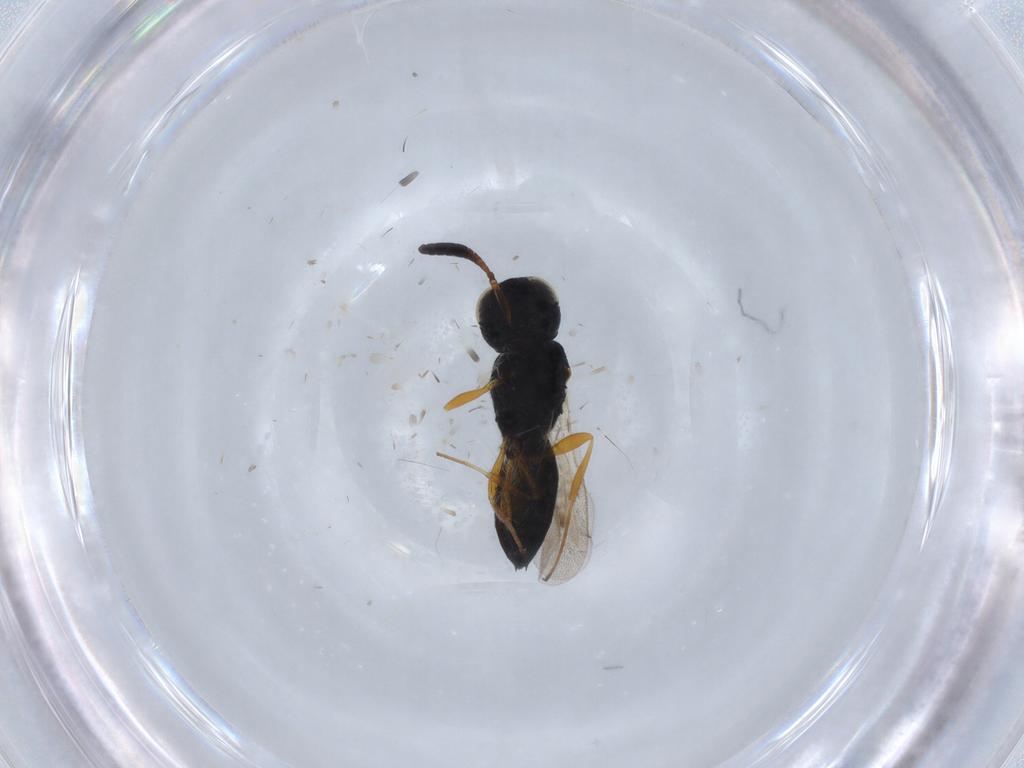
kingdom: Animalia
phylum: Arthropoda
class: Insecta
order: Hymenoptera
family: Scelionidae
